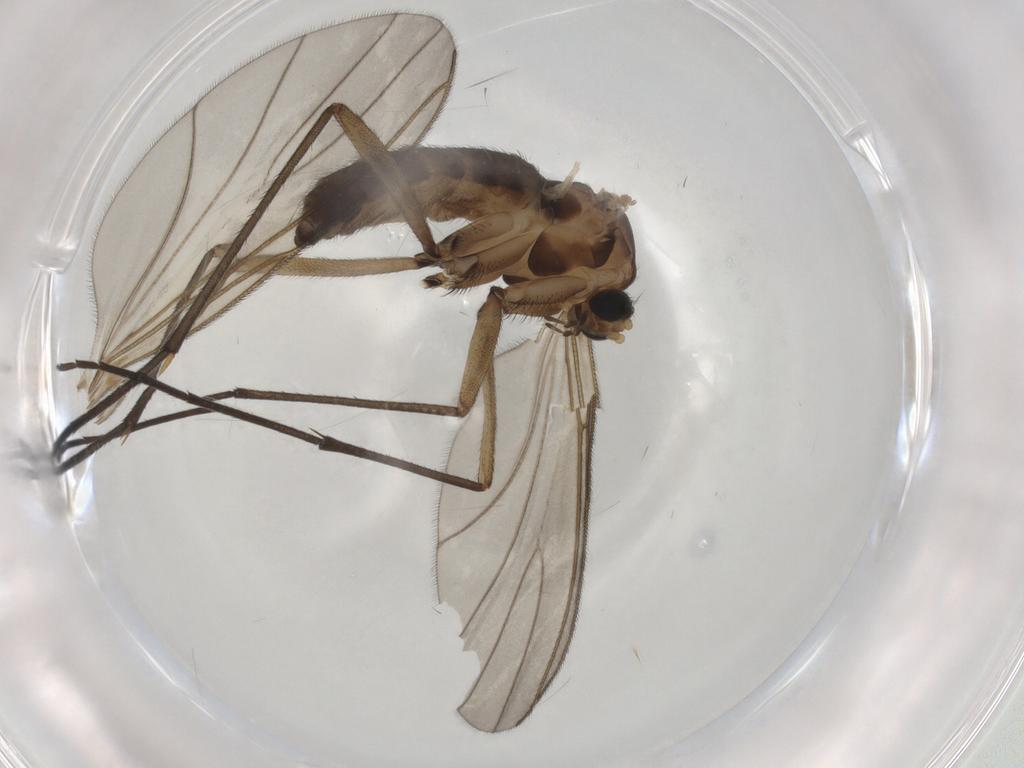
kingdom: Animalia
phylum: Arthropoda
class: Insecta
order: Diptera
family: Sciaridae
